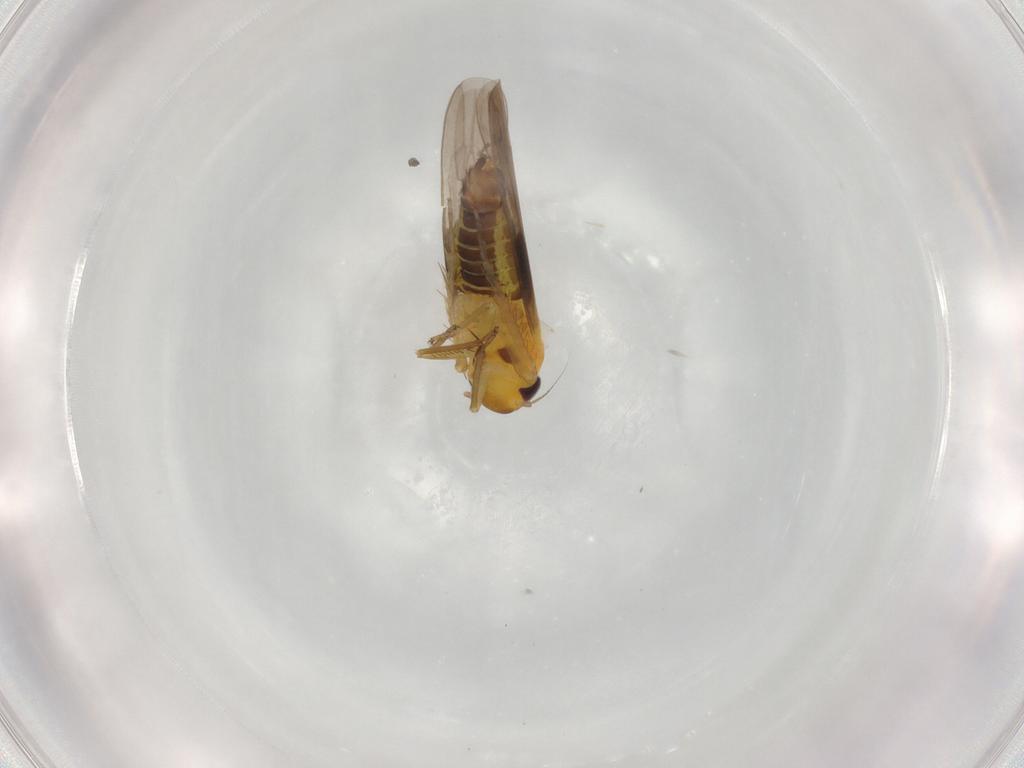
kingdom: Animalia
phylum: Arthropoda
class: Insecta
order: Hemiptera
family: Cicadellidae
